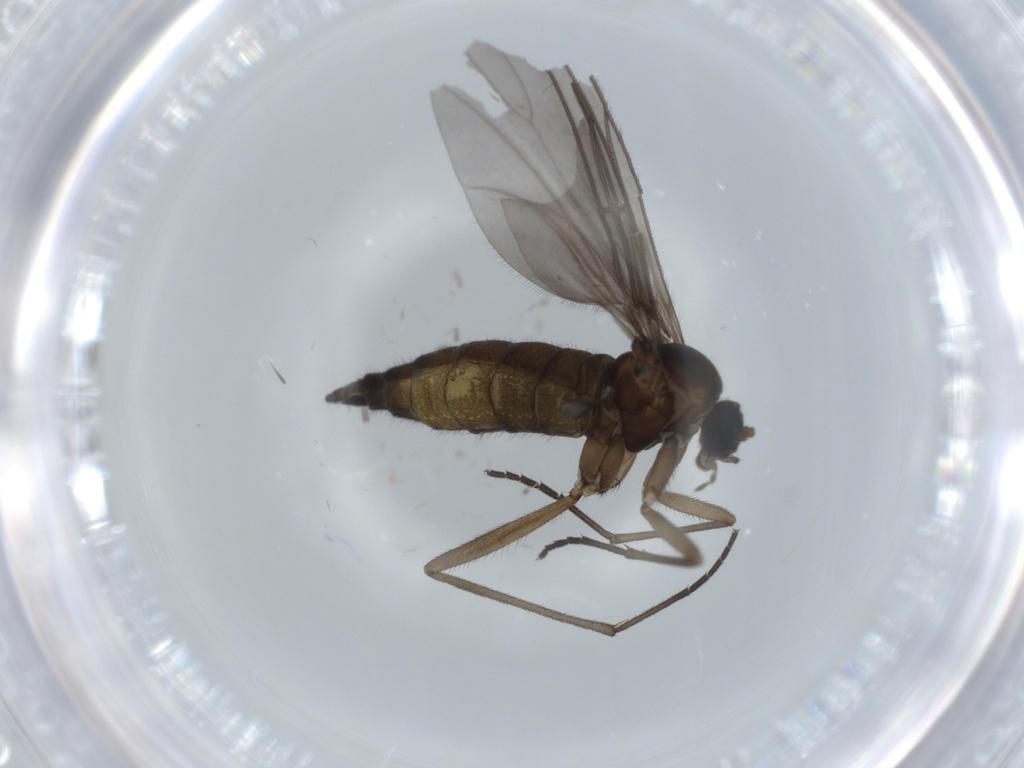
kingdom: Animalia
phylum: Arthropoda
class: Insecta
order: Diptera
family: Sciaridae
